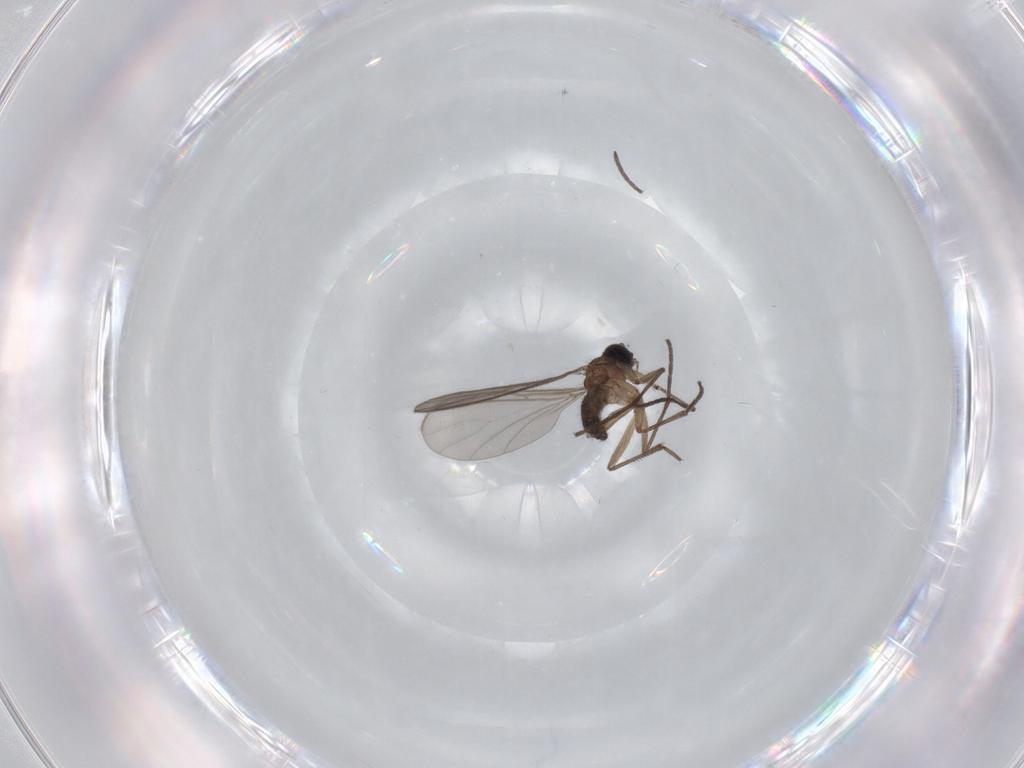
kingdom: Animalia
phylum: Arthropoda
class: Insecta
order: Diptera
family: Sciaridae
